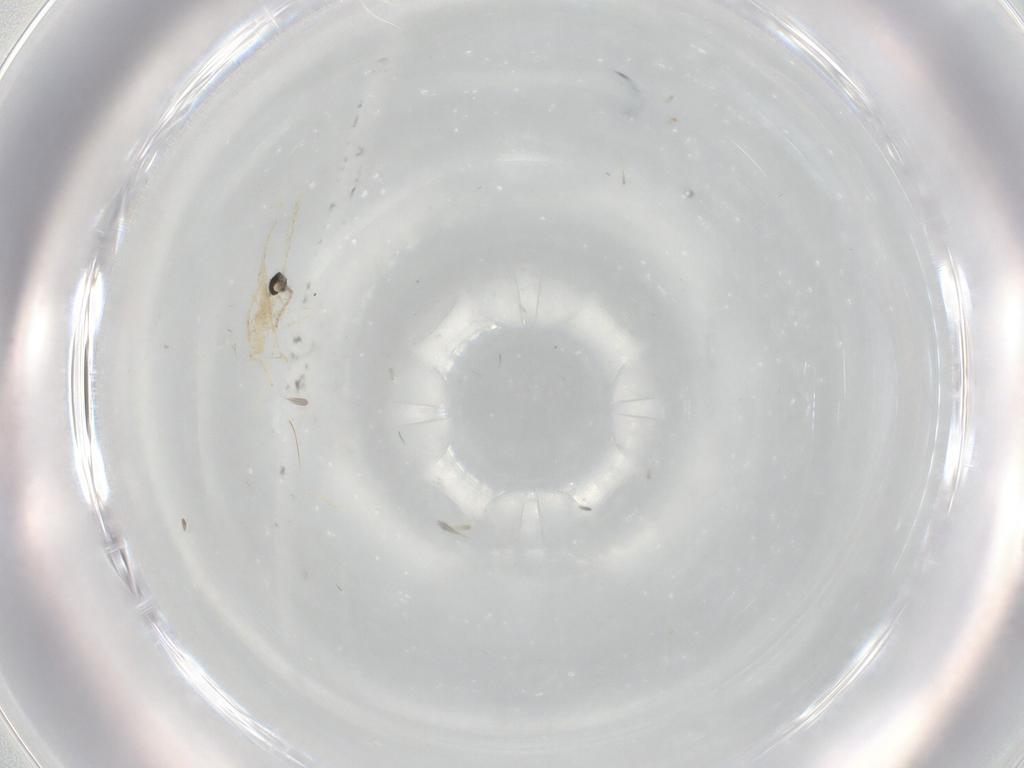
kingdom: Animalia
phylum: Arthropoda
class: Insecta
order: Diptera
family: Cecidomyiidae
